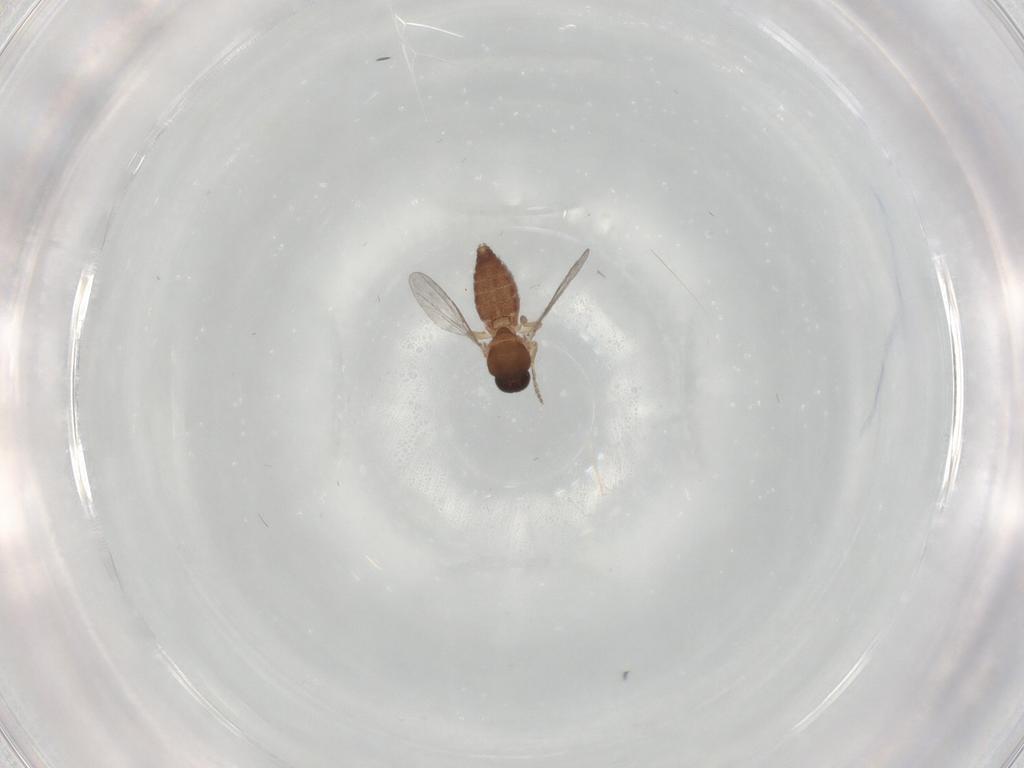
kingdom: Animalia
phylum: Arthropoda
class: Insecta
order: Diptera
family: Ceratopogonidae
